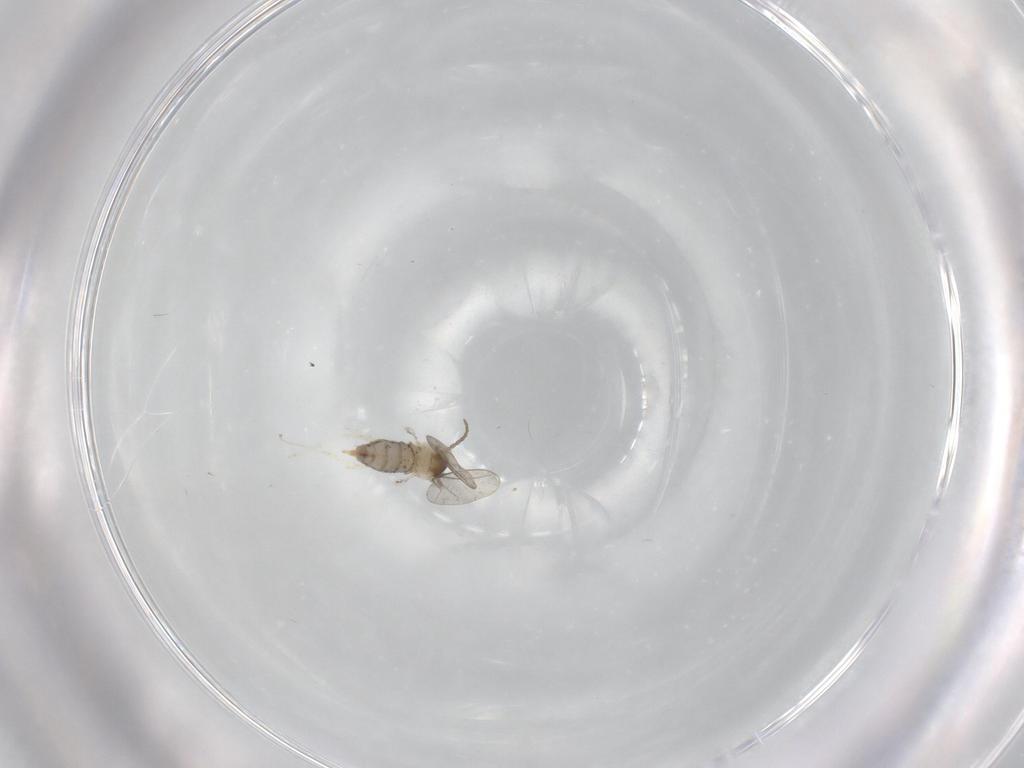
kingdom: Animalia
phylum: Arthropoda
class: Insecta
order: Diptera
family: Cecidomyiidae
